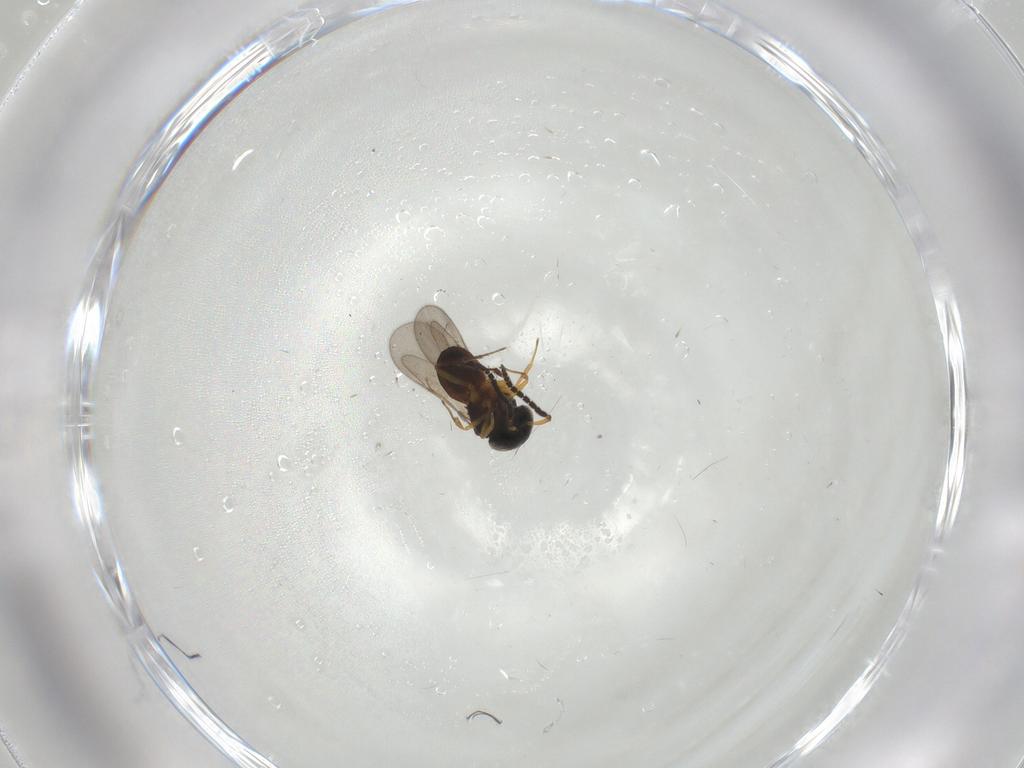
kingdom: Animalia
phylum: Arthropoda
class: Insecta
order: Hymenoptera
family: Scelionidae
